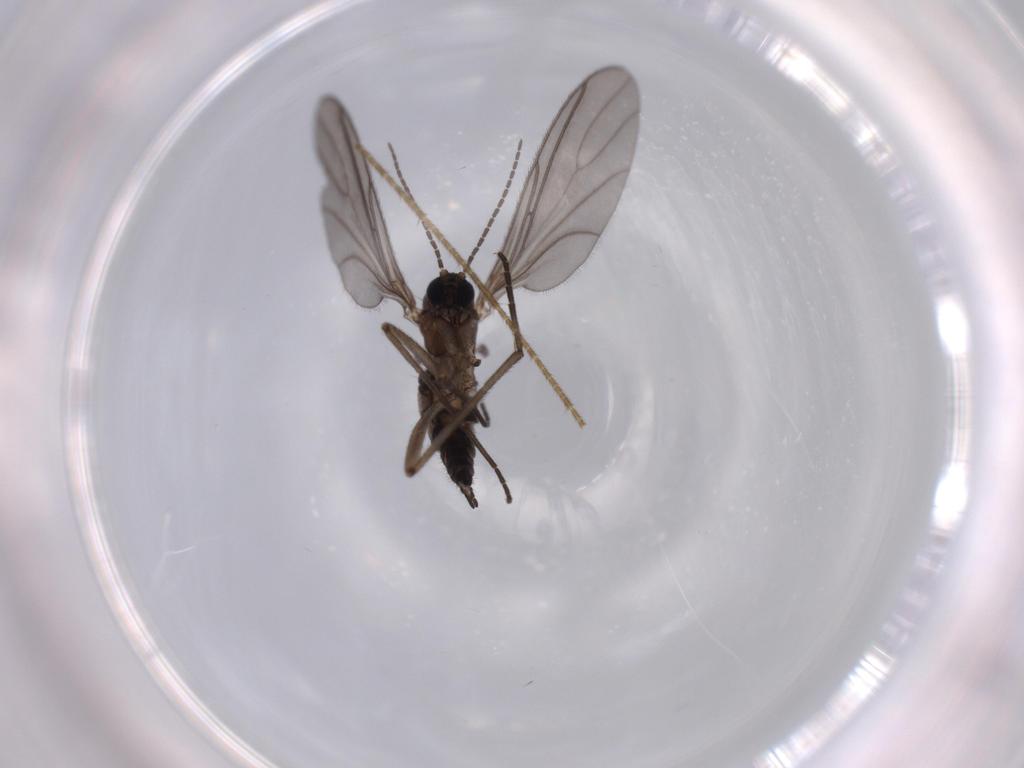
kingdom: Animalia
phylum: Arthropoda
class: Insecta
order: Diptera
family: Sciaridae
